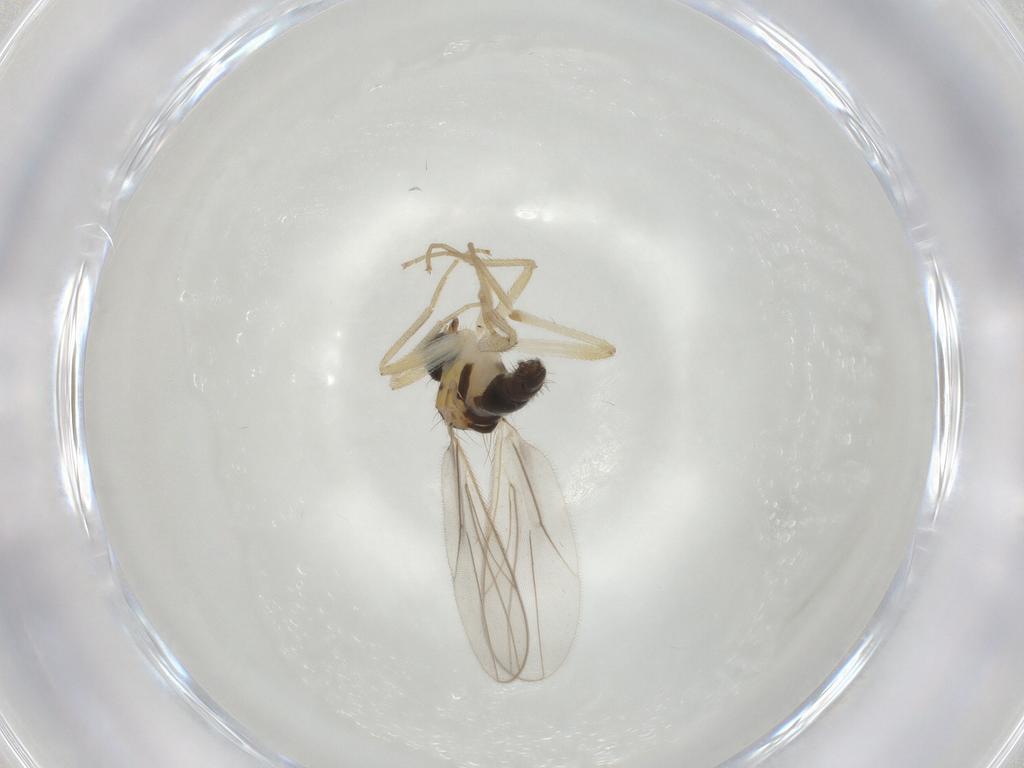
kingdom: Animalia
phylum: Arthropoda
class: Insecta
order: Diptera
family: Hybotidae
